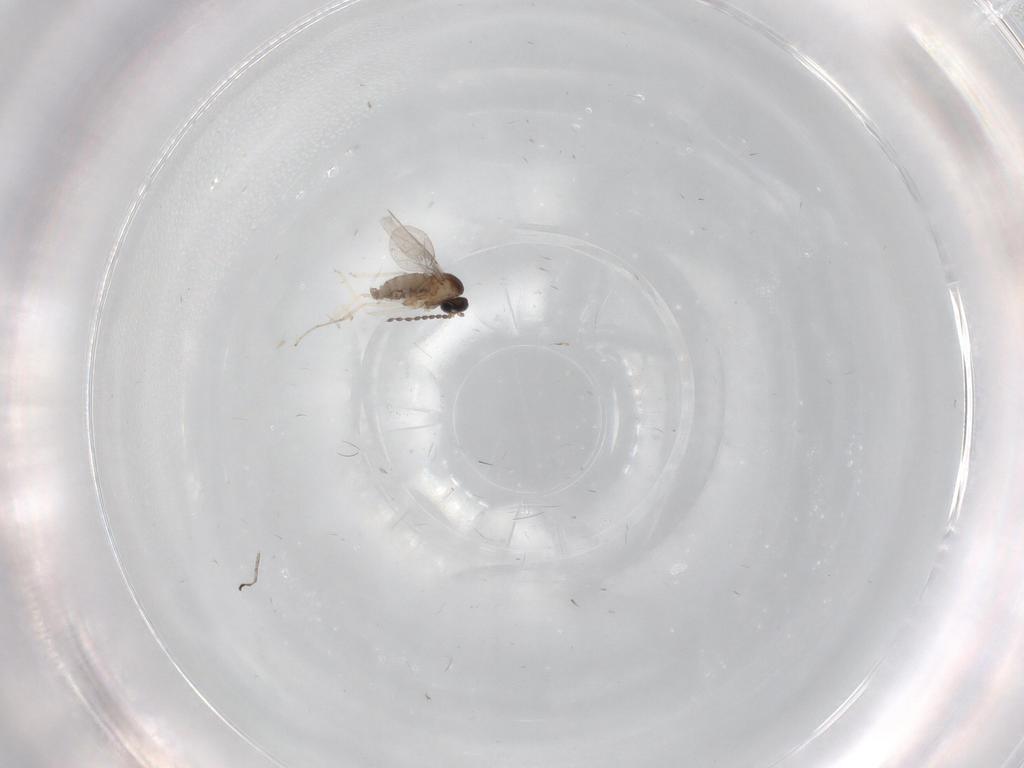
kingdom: Animalia
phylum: Arthropoda
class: Insecta
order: Diptera
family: Cecidomyiidae
